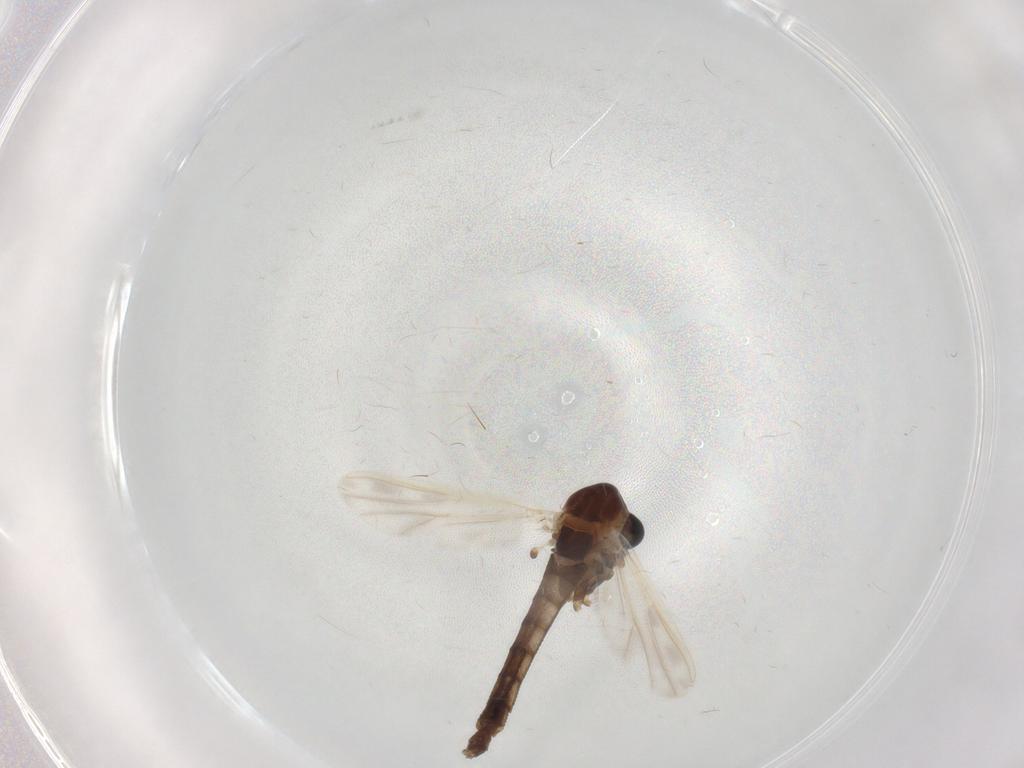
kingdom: Animalia
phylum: Arthropoda
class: Insecta
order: Diptera
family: Chironomidae
